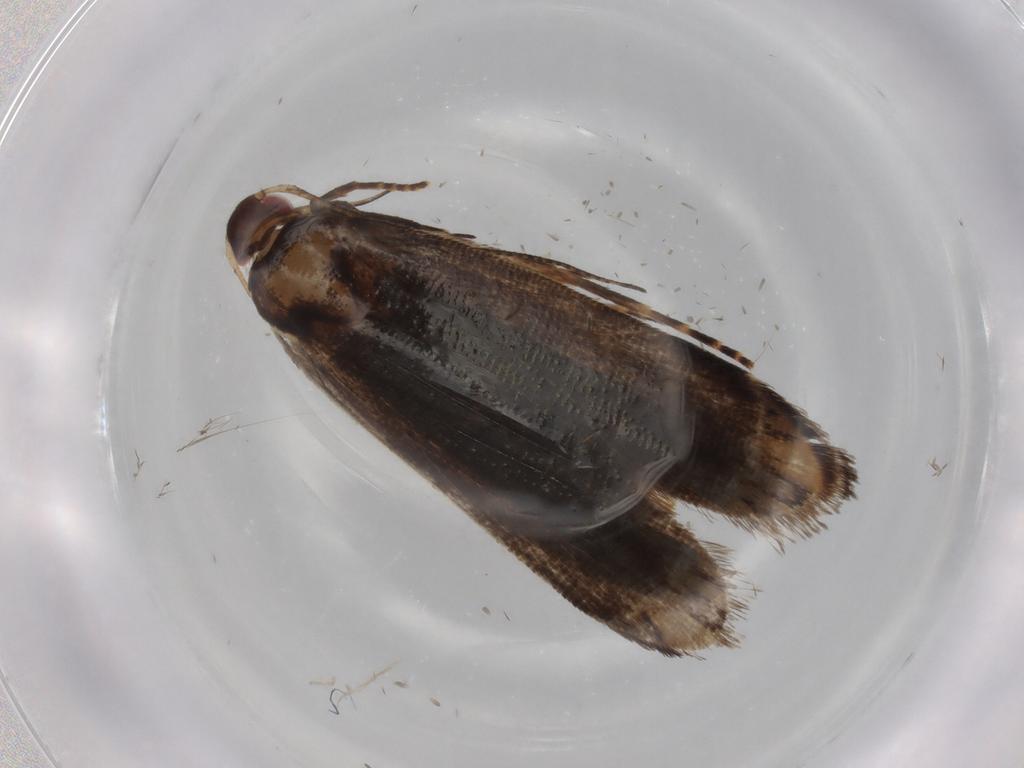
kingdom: Animalia
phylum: Arthropoda
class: Insecta
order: Lepidoptera
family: Gelechiidae
